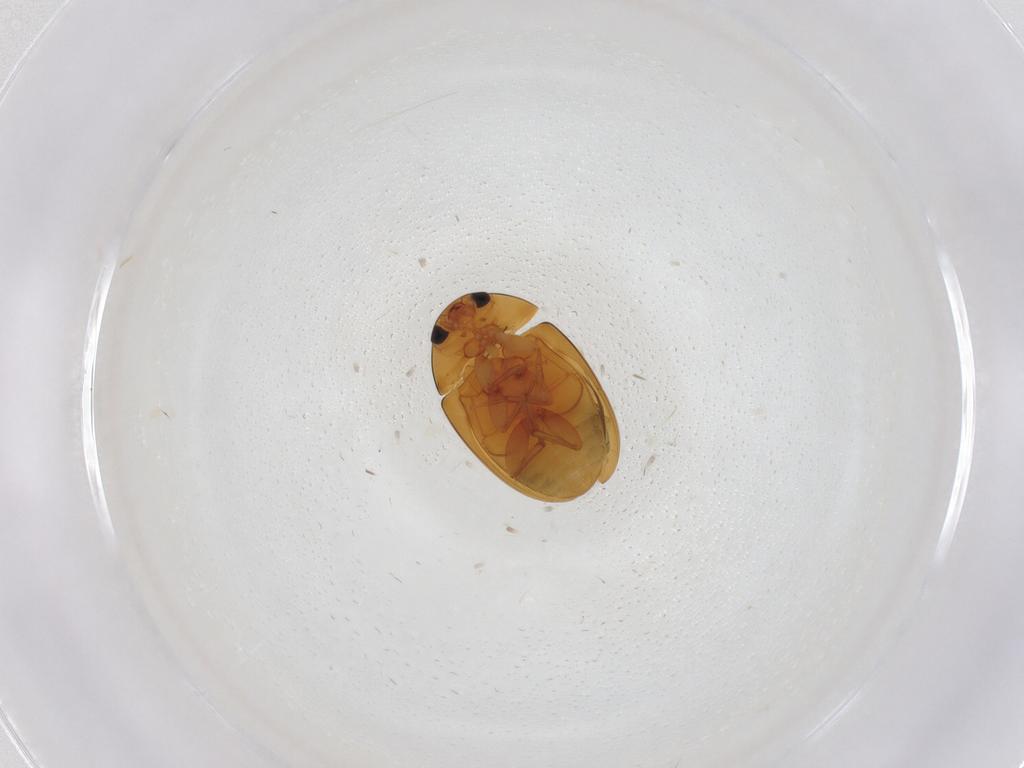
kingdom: Animalia
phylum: Arthropoda
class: Insecta
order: Coleoptera
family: Phalacridae
